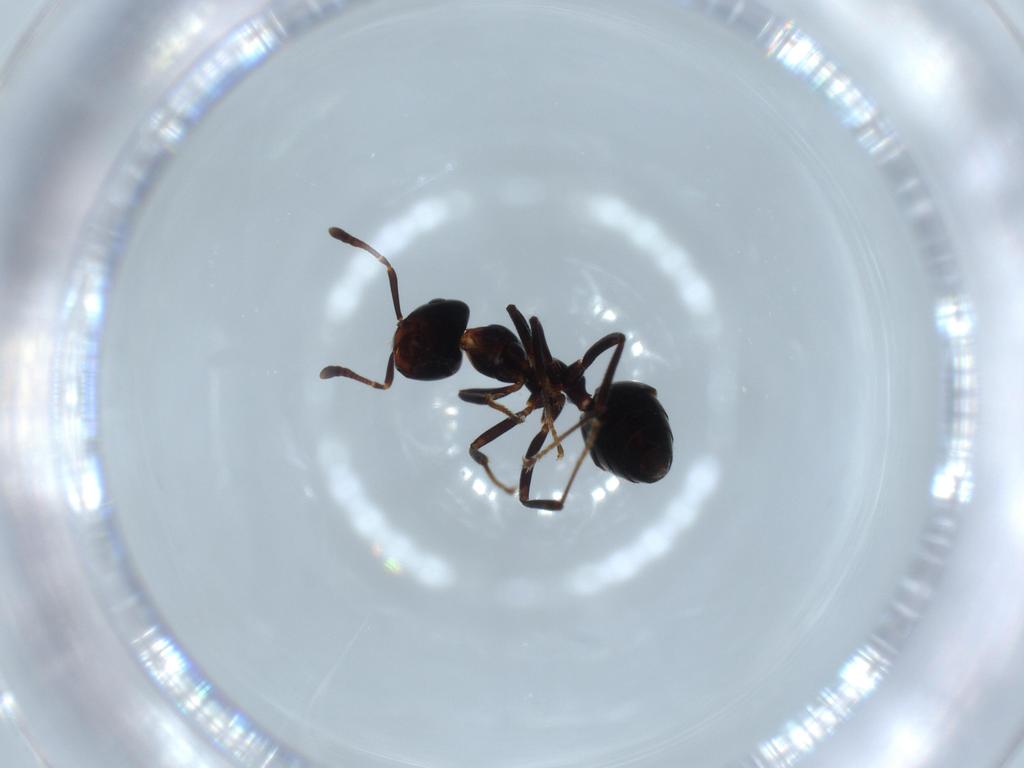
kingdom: Animalia
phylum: Arthropoda
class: Insecta
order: Hymenoptera
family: Formicidae
